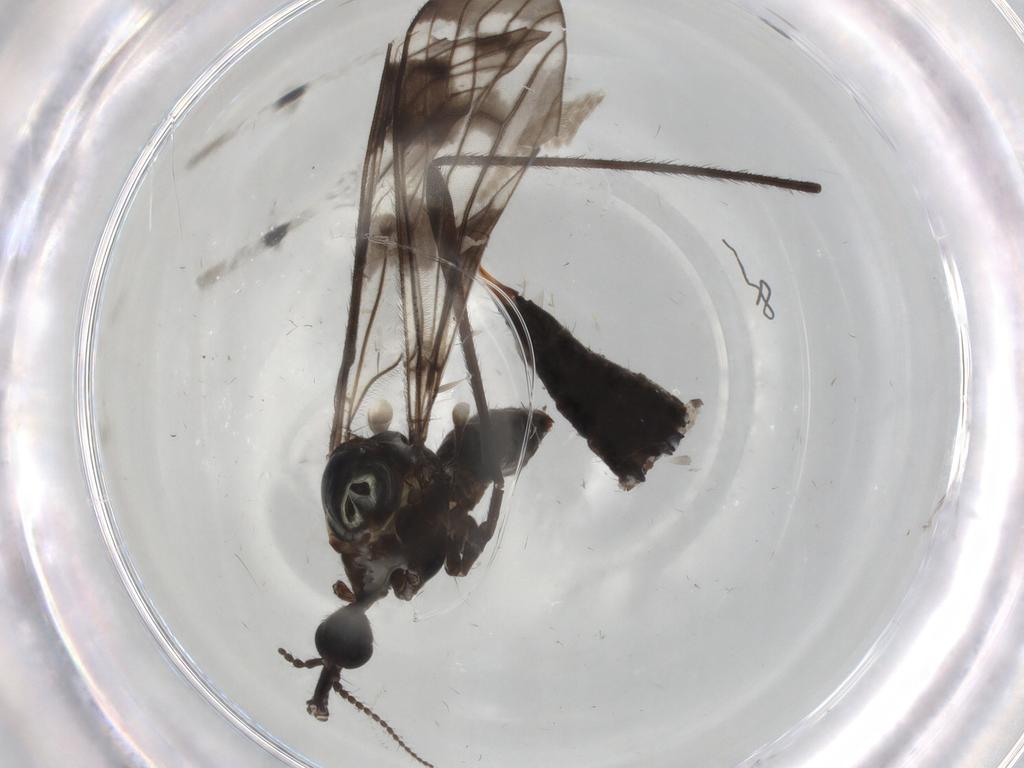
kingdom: Animalia
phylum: Arthropoda
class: Insecta
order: Diptera
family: Limoniidae
